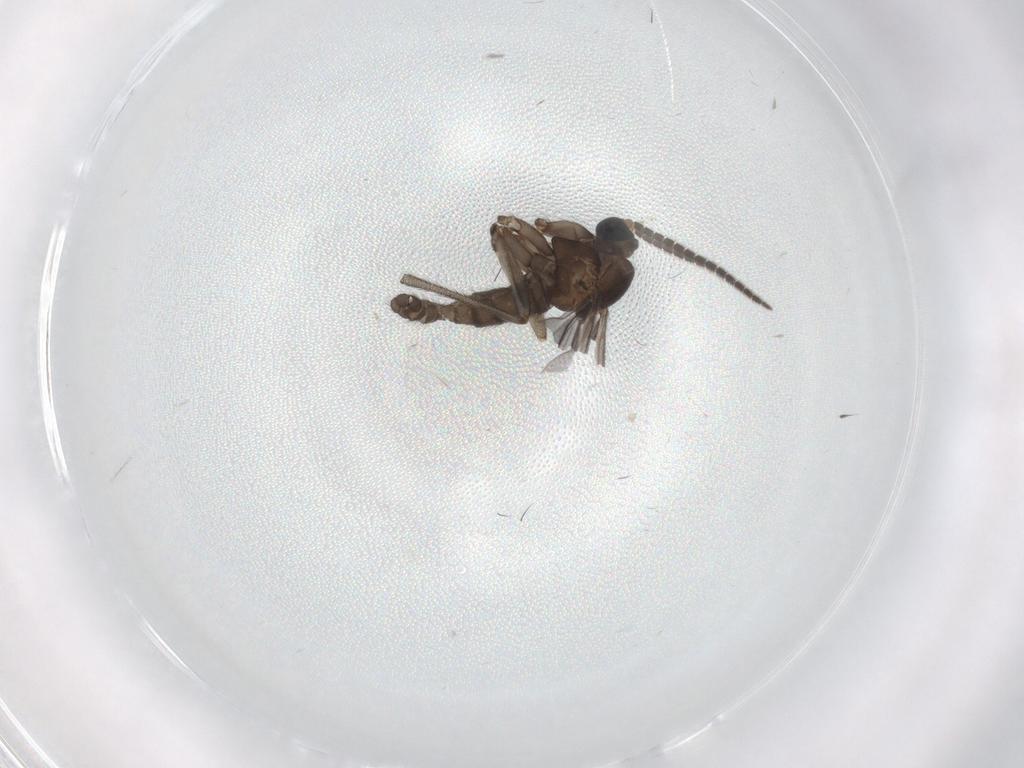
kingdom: Animalia
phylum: Arthropoda
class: Insecta
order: Diptera
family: Sciaridae
